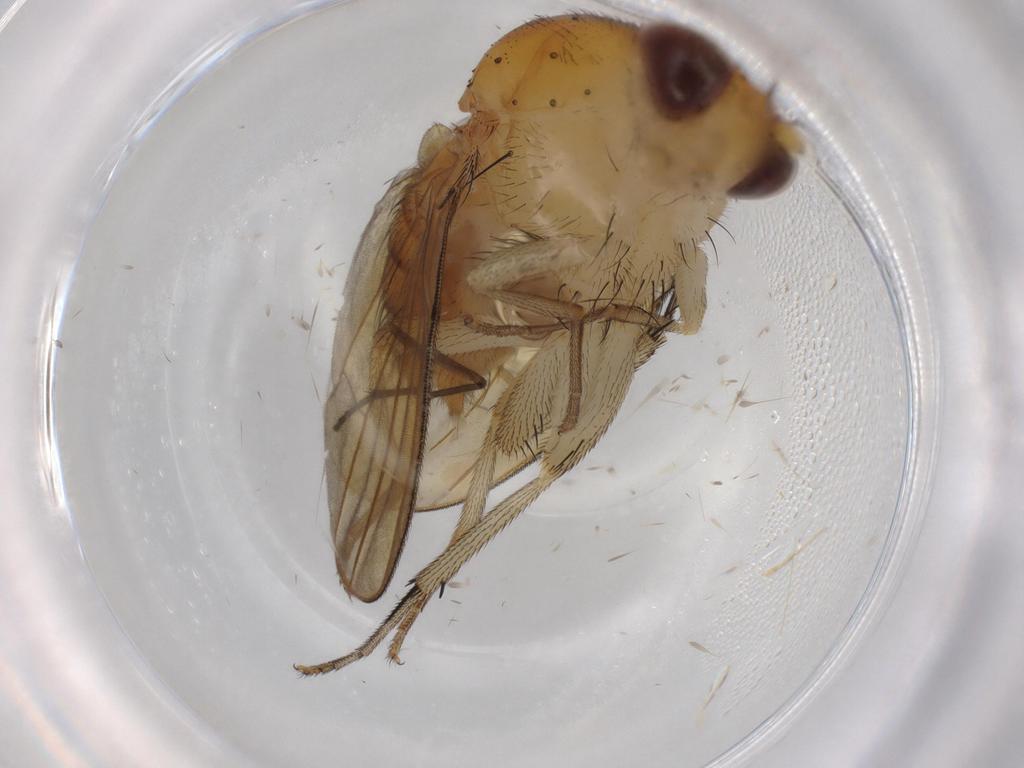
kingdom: Animalia
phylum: Arthropoda
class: Insecta
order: Diptera
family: Cecidomyiidae
